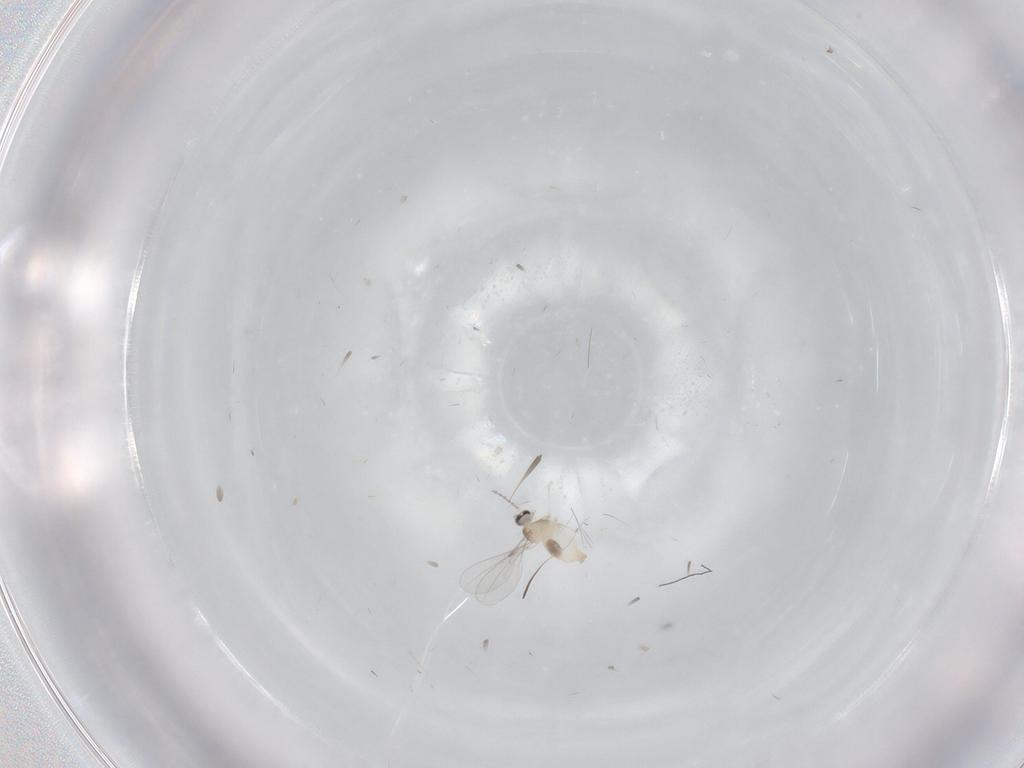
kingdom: Animalia
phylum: Arthropoda
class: Insecta
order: Diptera
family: Cecidomyiidae
